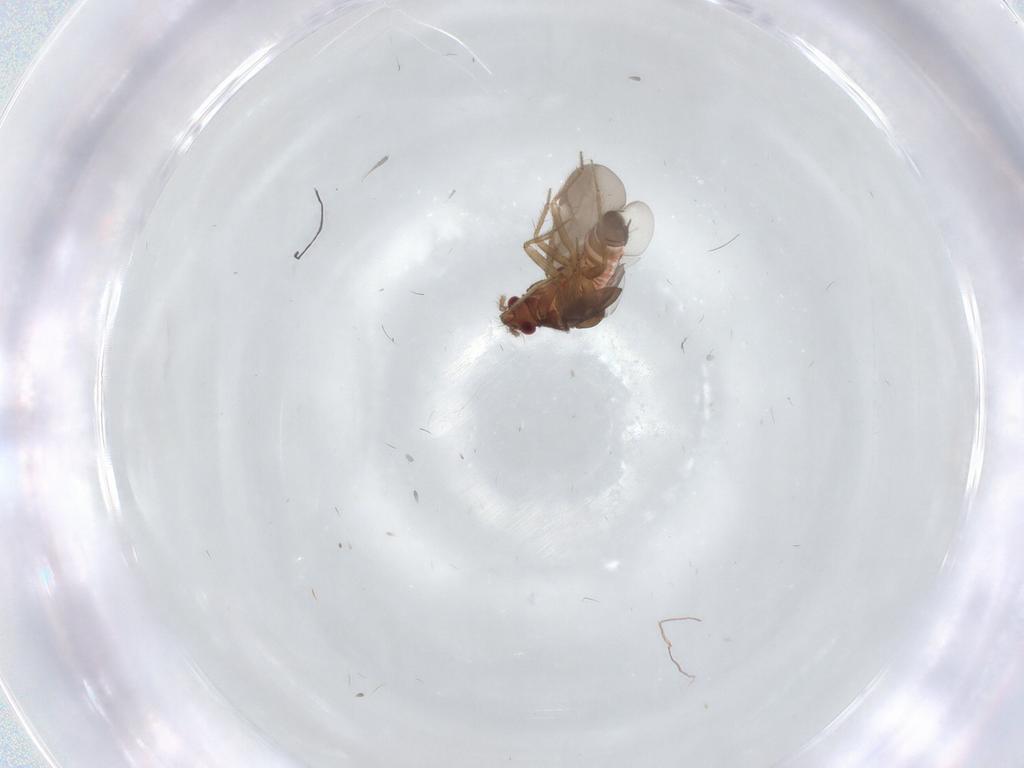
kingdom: Animalia
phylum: Arthropoda
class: Insecta
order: Hemiptera
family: Ceratocombidae
